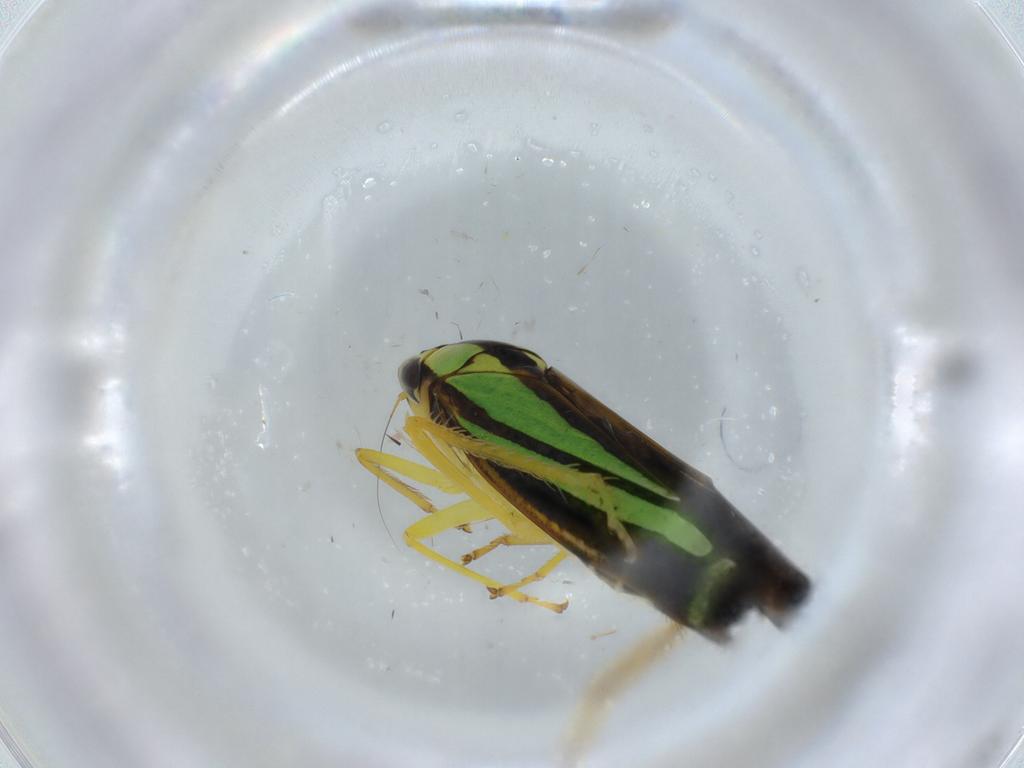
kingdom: Animalia
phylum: Arthropoda
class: Insecta
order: Hemiptera
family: Cicadellidae
